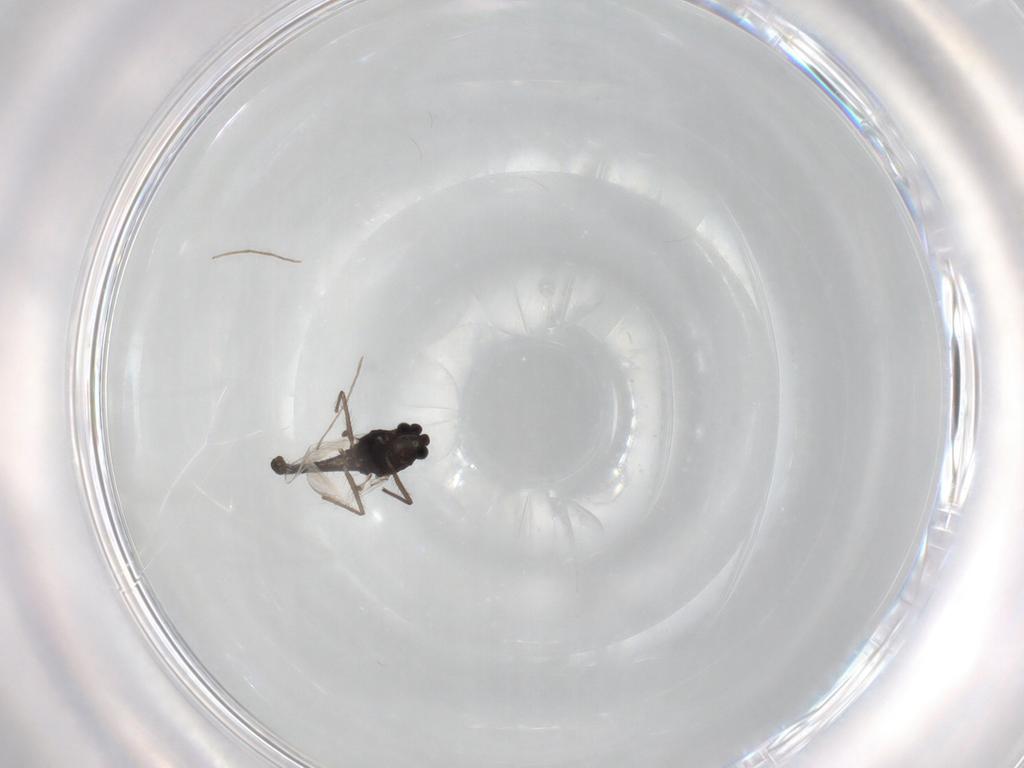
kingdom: Animalia
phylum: Arthropoda
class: Insecta
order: Diptera
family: Chironomidae
